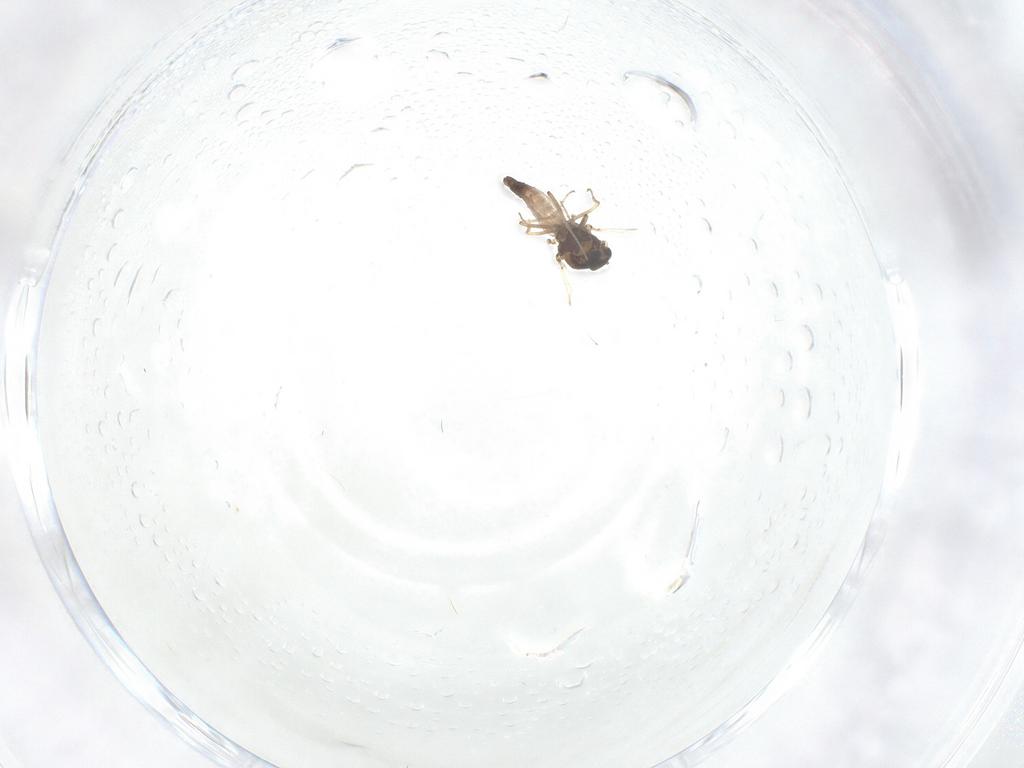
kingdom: Animalia
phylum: Arthropoda
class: Insecta
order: Diptera
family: Ceratopogonidae
